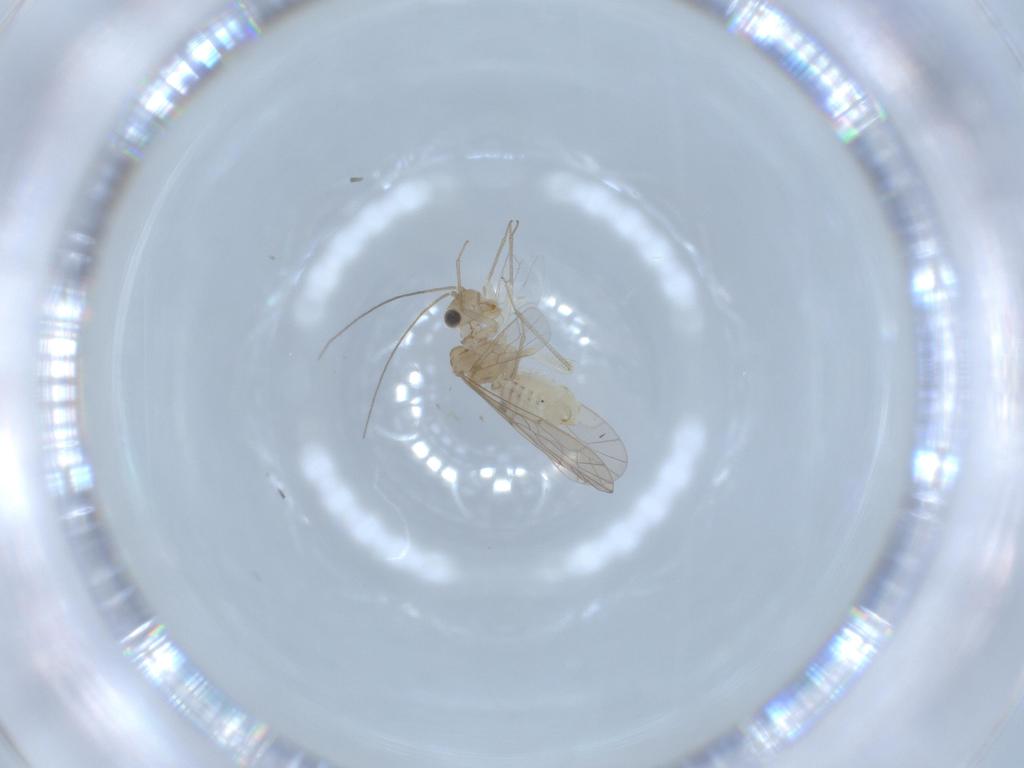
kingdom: Animalia
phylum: Arthropoda
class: Insecta
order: Psocodea
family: Lachesillidae
